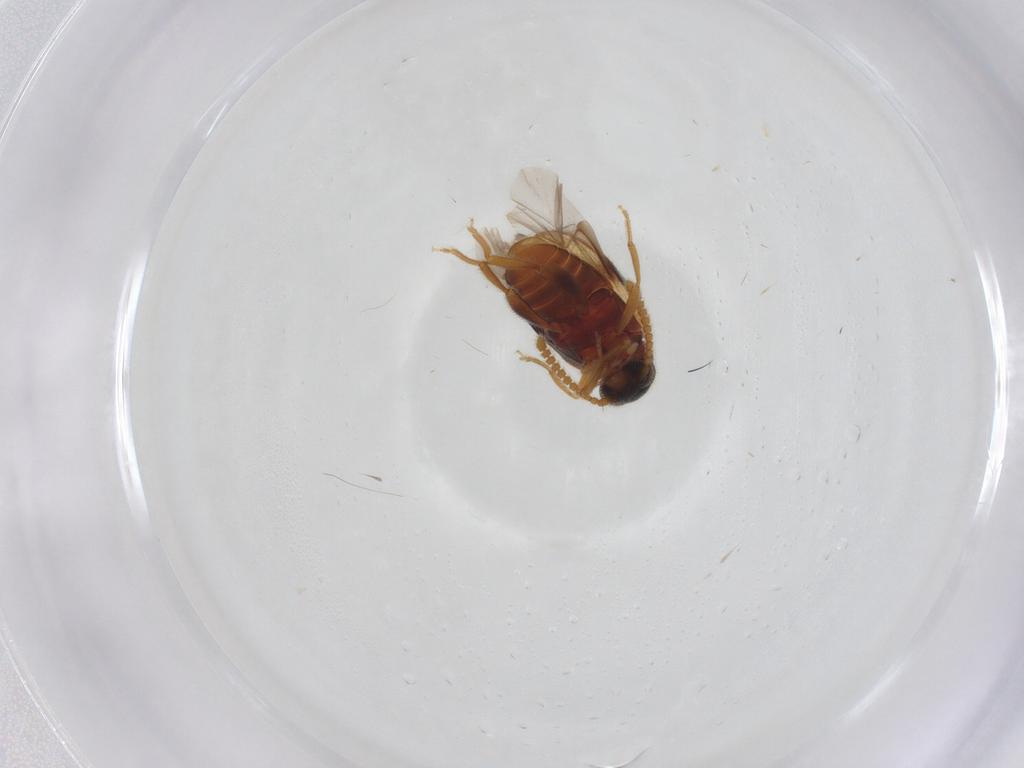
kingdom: Animalia
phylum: Arthropoda
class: Insecta
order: Coleoptera
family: Aderidae
